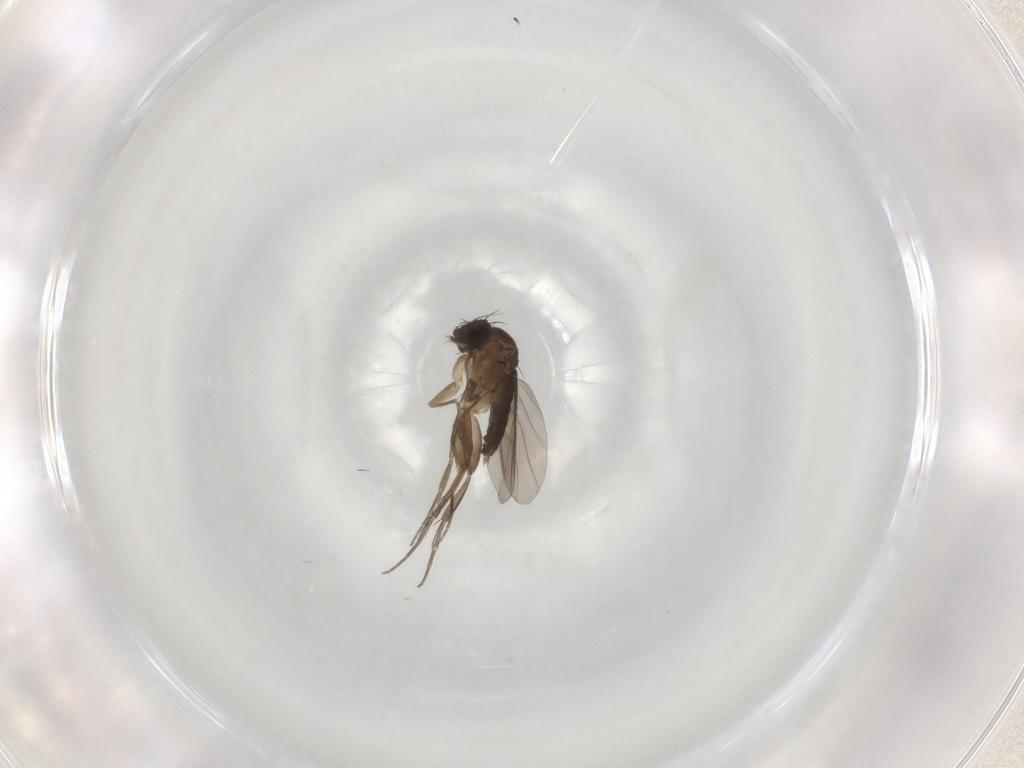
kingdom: Animalia
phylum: Arthropoda
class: Insecta
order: Diptera
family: Phoridae
